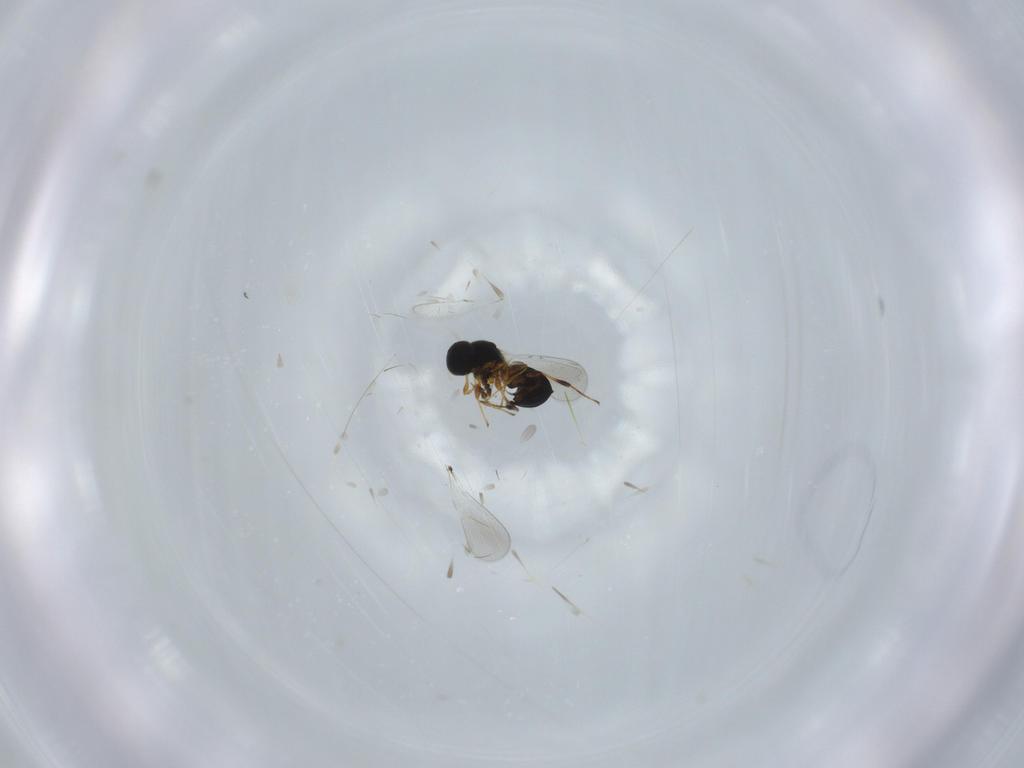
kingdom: Animalia
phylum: Arthropoda
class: Insecta
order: Hymenoptera
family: Platygastridae
